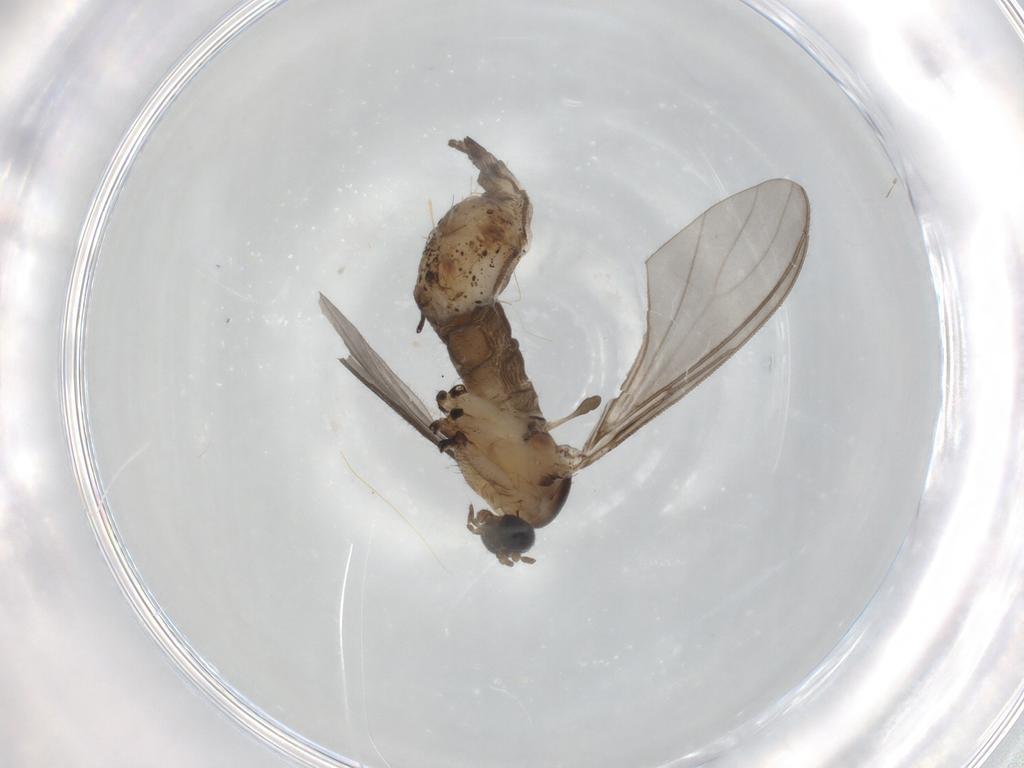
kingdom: Animalia
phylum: Arthropoda
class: Insecta
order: Diptera
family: Sciaridae
